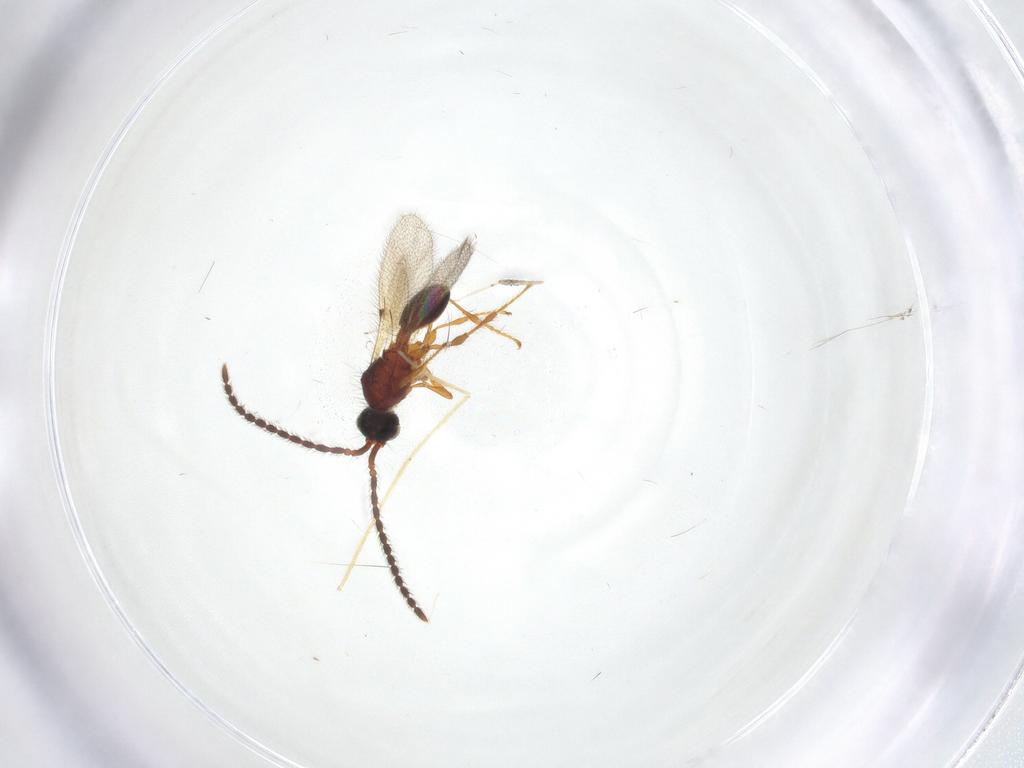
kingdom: Animalia
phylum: Arthropoda
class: Insecta
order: Hymenoptera
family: Diapriidae
